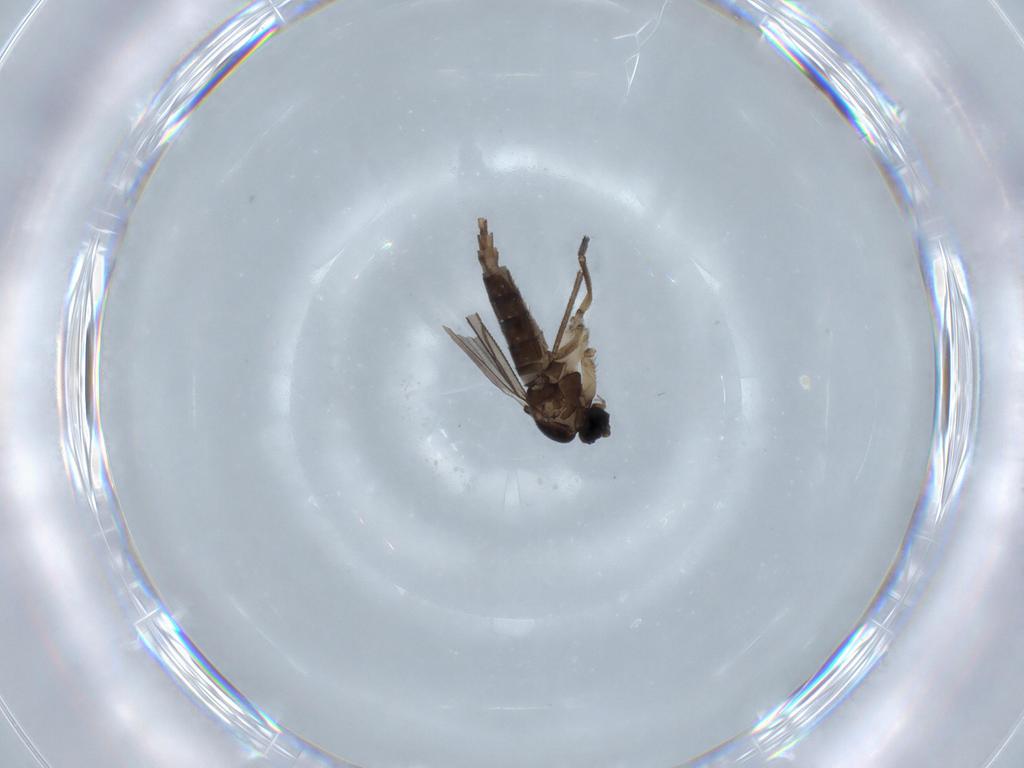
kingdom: Animalia
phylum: Arthropoda
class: Insecta
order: Diptera
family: Sciaridae
